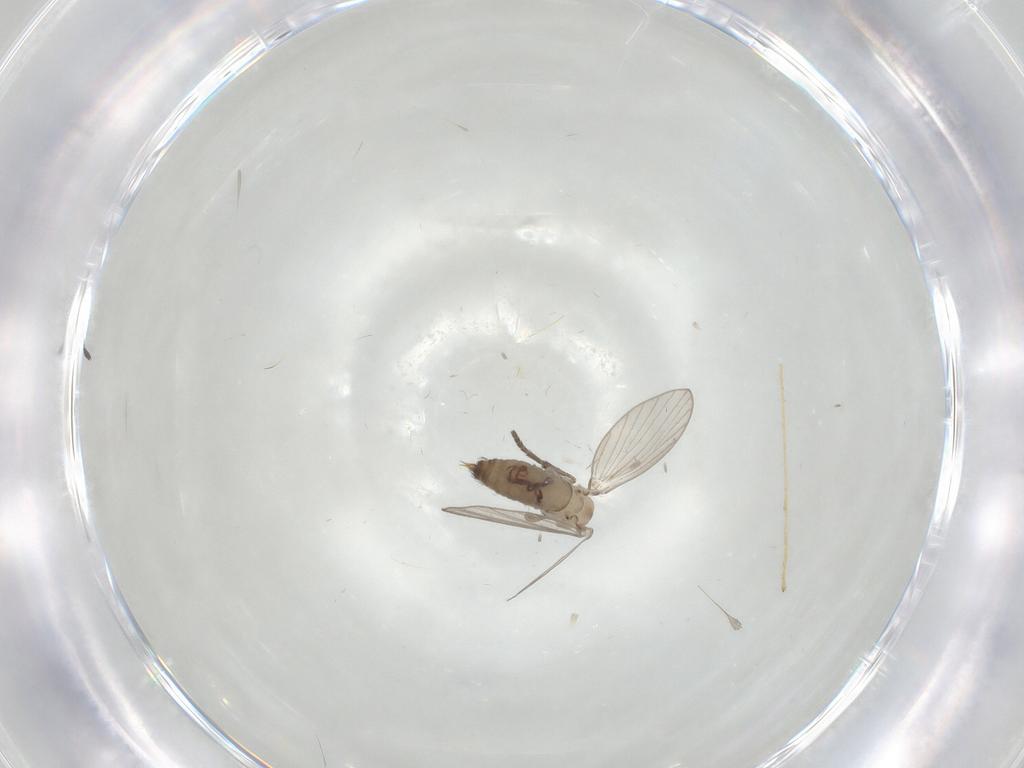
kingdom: Animalia
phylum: Arthropoda
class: Insecta
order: Diptera
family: Psychodidae
